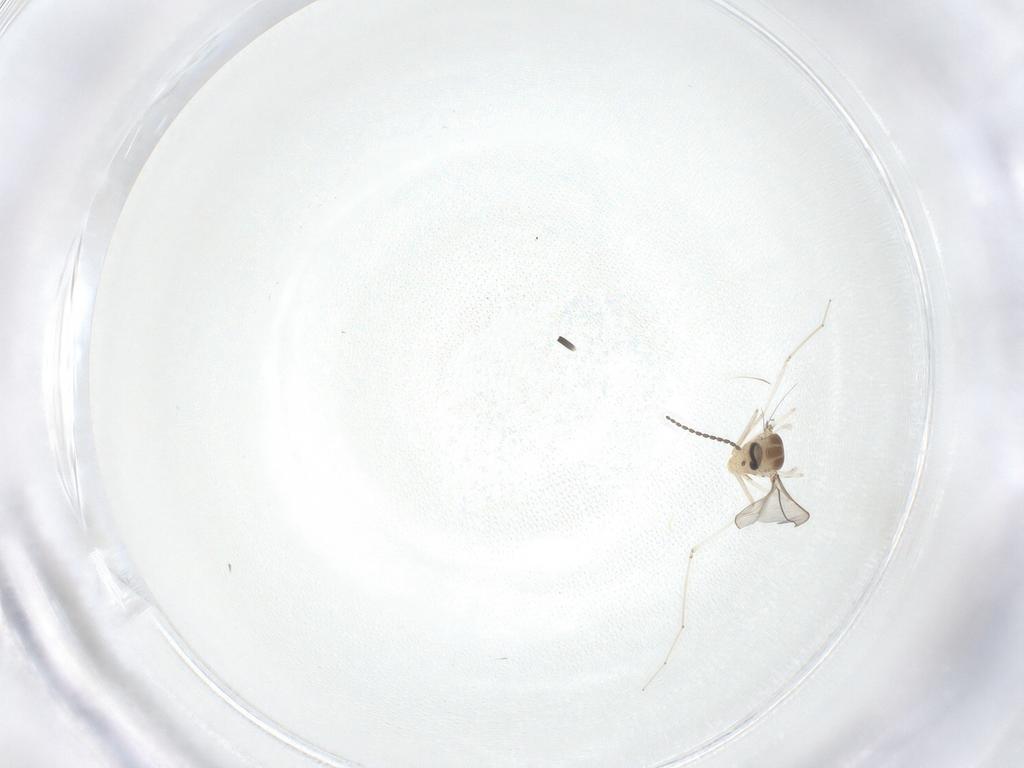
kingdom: Animalia
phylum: Arthropoda
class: Insecta
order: Diptera
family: Cecidomyiidae
